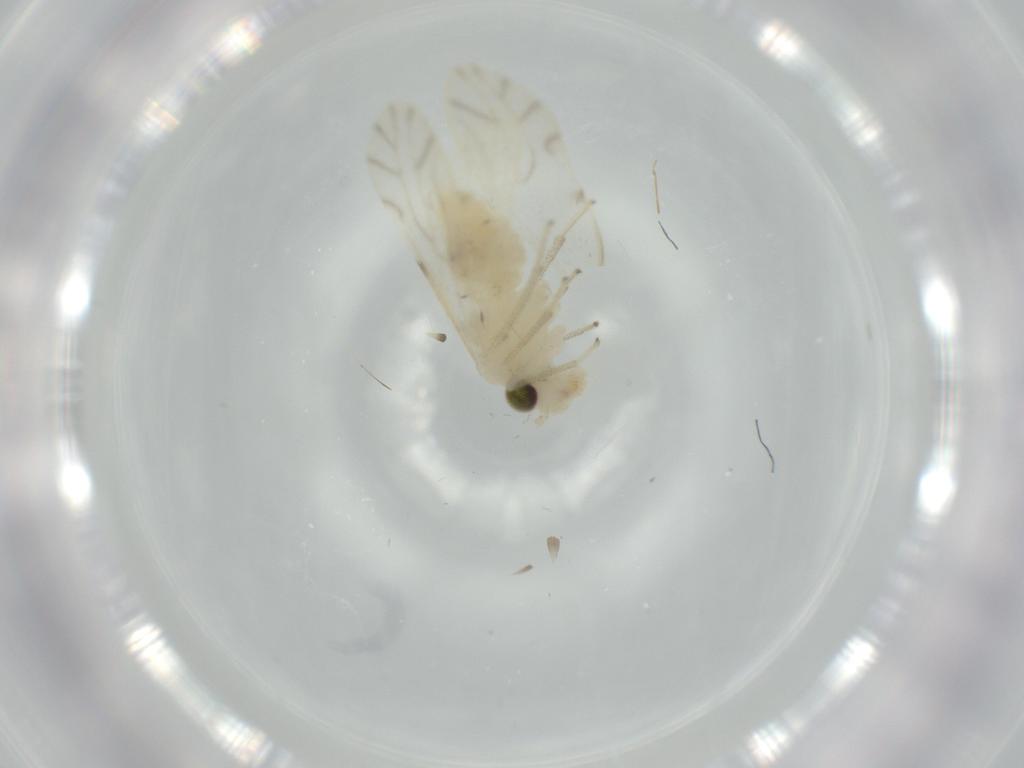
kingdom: Animalia
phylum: Arthropoda
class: Insecta
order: Psocodea
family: Caeciliusidae
